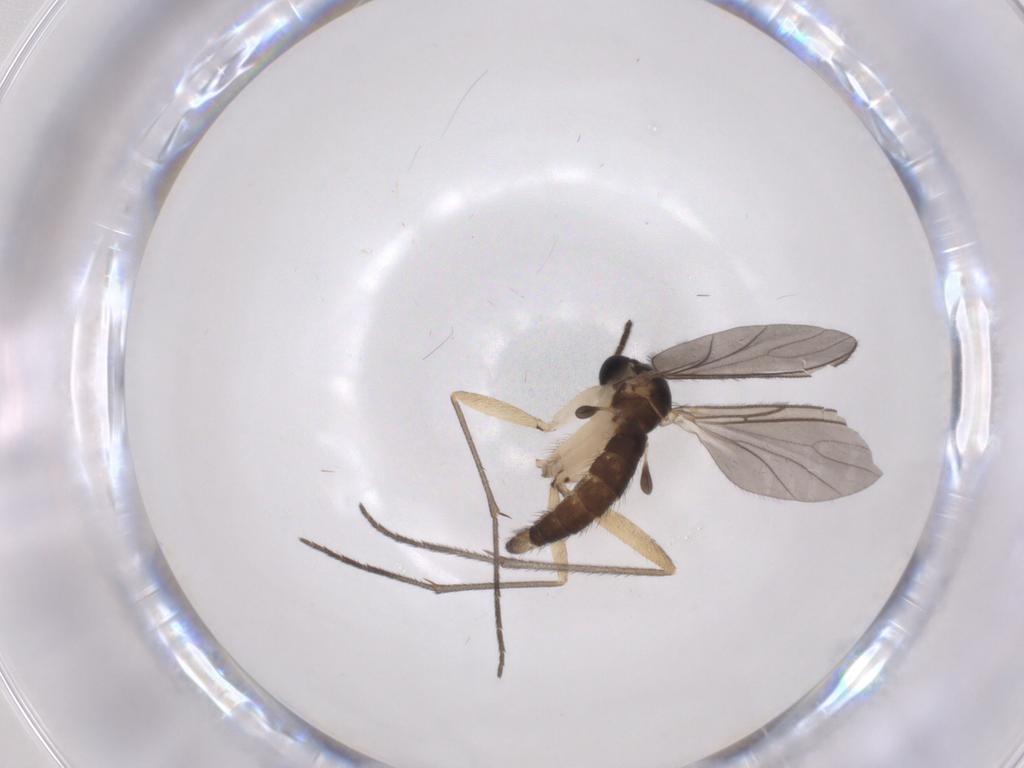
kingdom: Animalia
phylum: Arthropoda
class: Insecta
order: Diptera
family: Sciaridae
